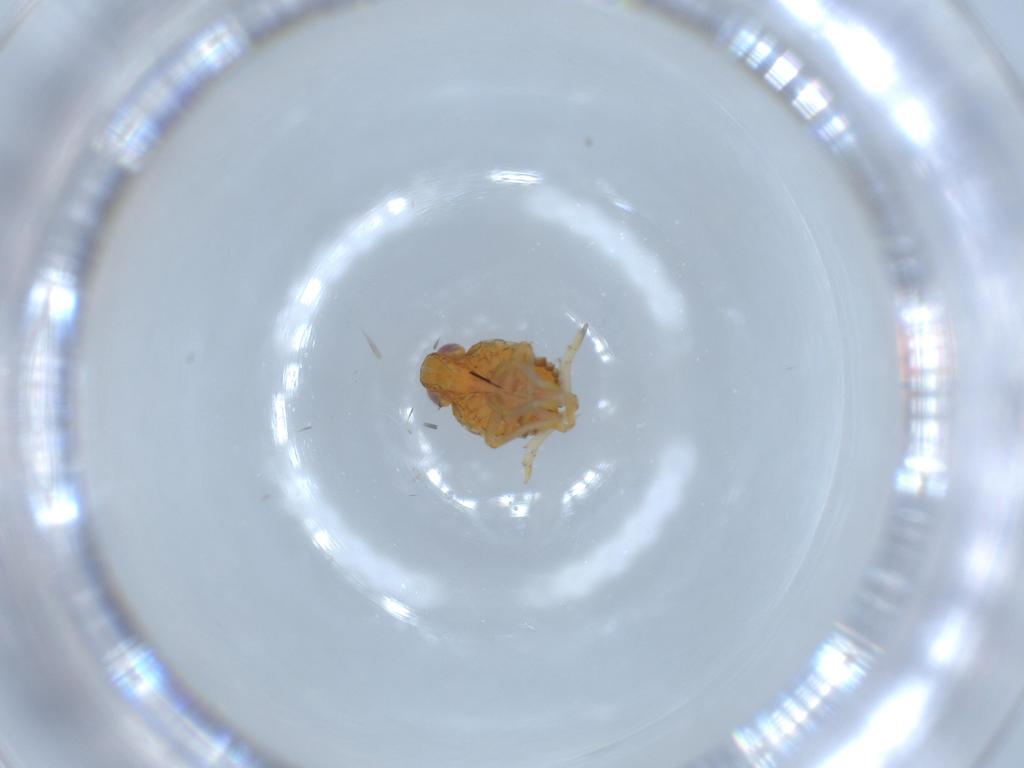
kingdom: Animalia
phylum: Arthropoda
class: Insecta
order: Hemiptera
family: Issidae
